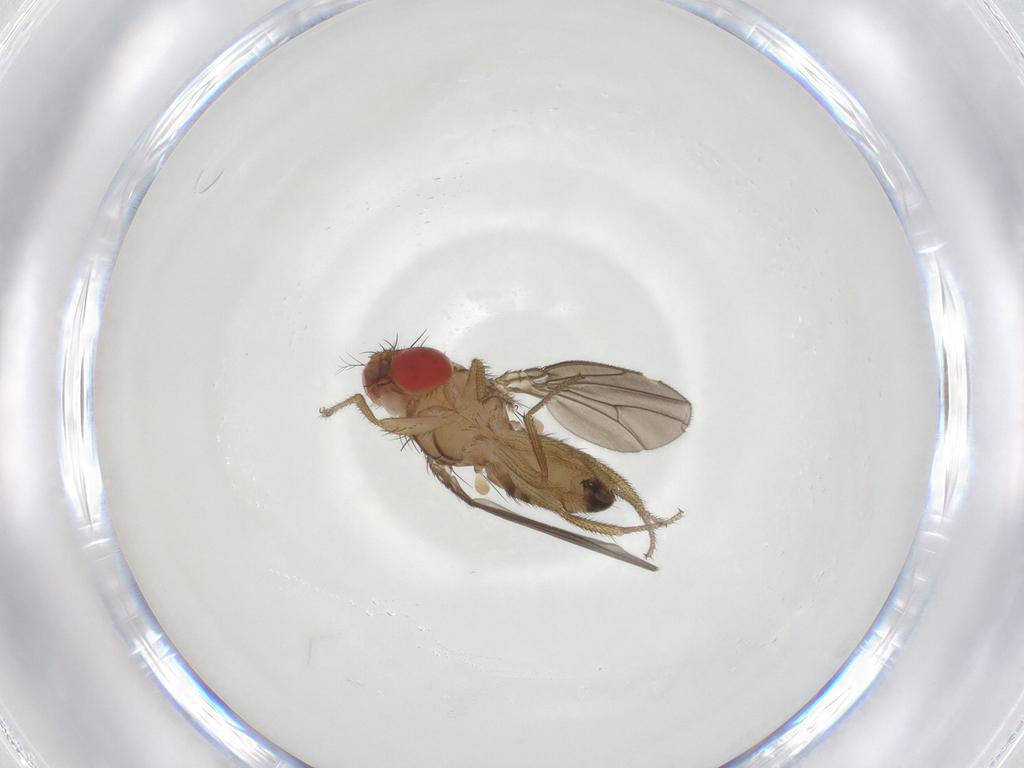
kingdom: Animalia
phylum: Arthropoda
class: Insecta
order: Diptera
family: Drosophilidae
